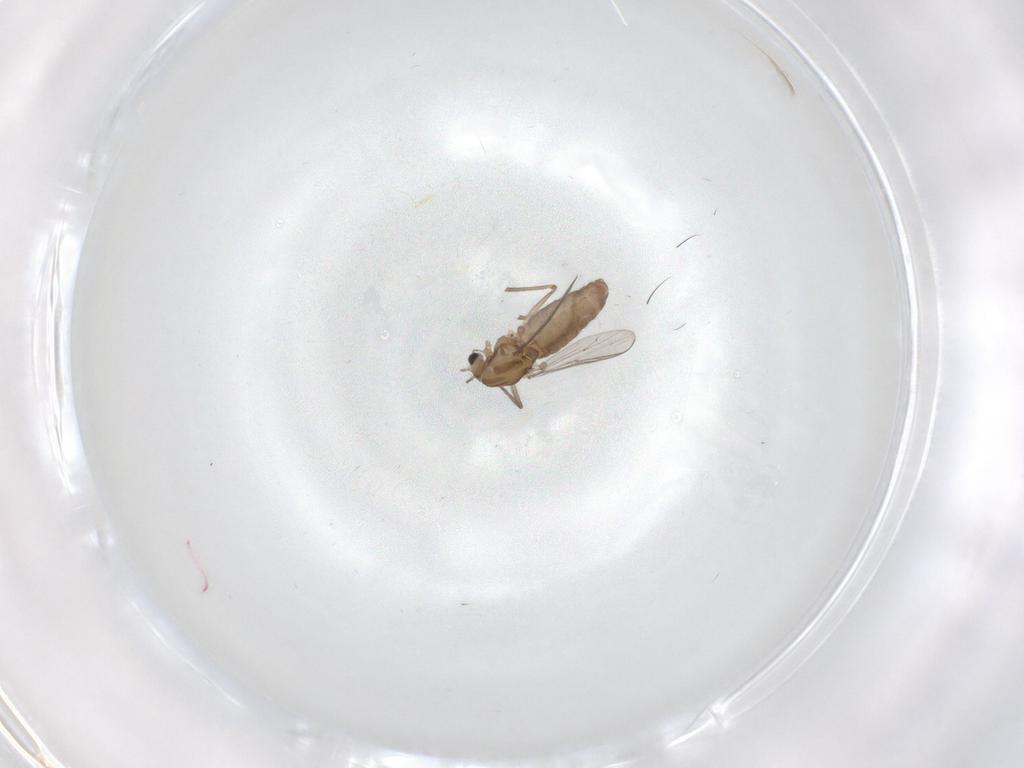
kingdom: Animalia
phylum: Arthropoda
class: Insecta
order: Diptera
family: Chironomidae
